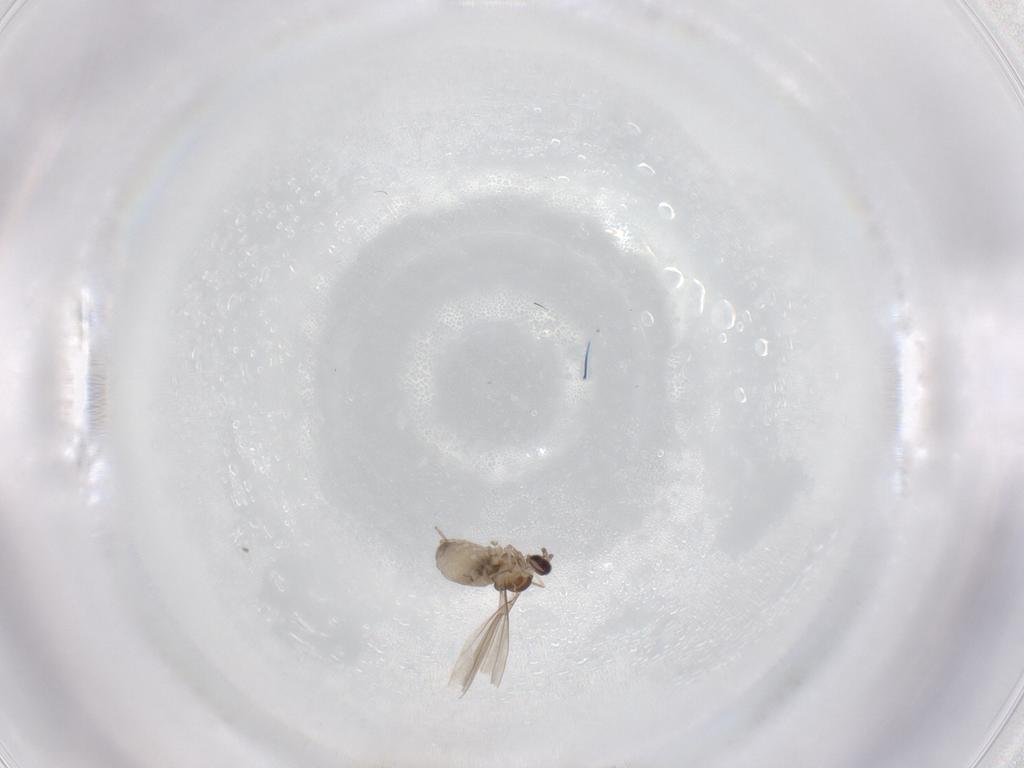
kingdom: Animalia
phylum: Arthropoda
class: Insecta
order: Diptera
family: Cecidomyiidae
